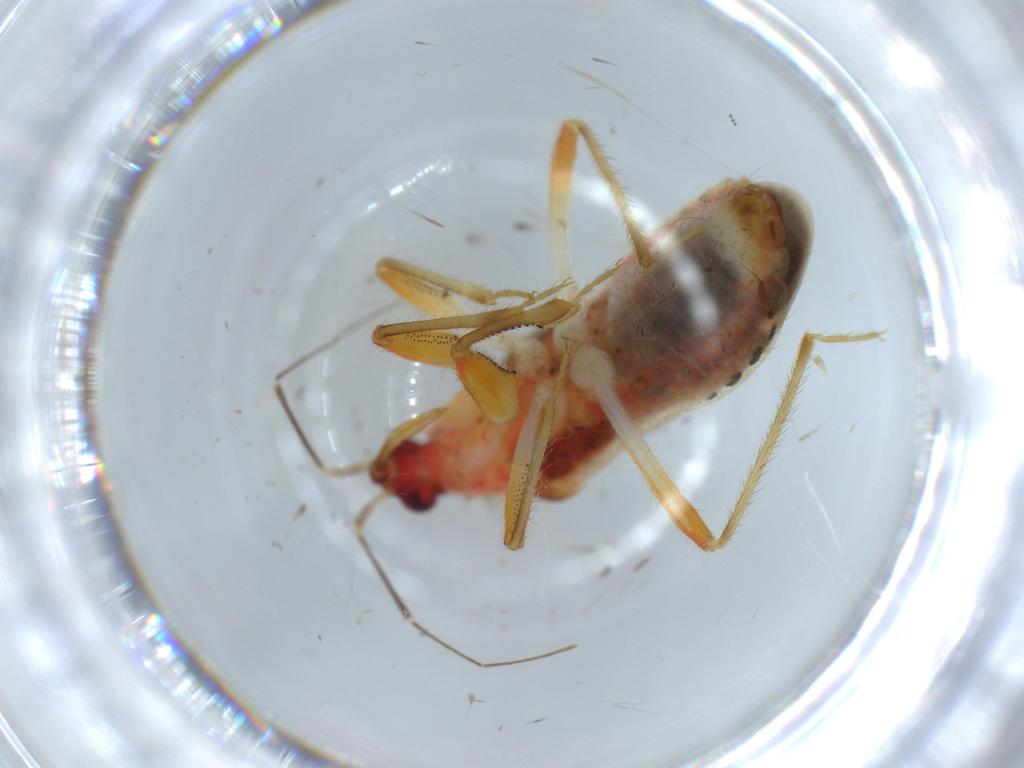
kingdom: Animalia
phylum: Arthropoda
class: Insecta
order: Hemiptera
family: Nabidae
